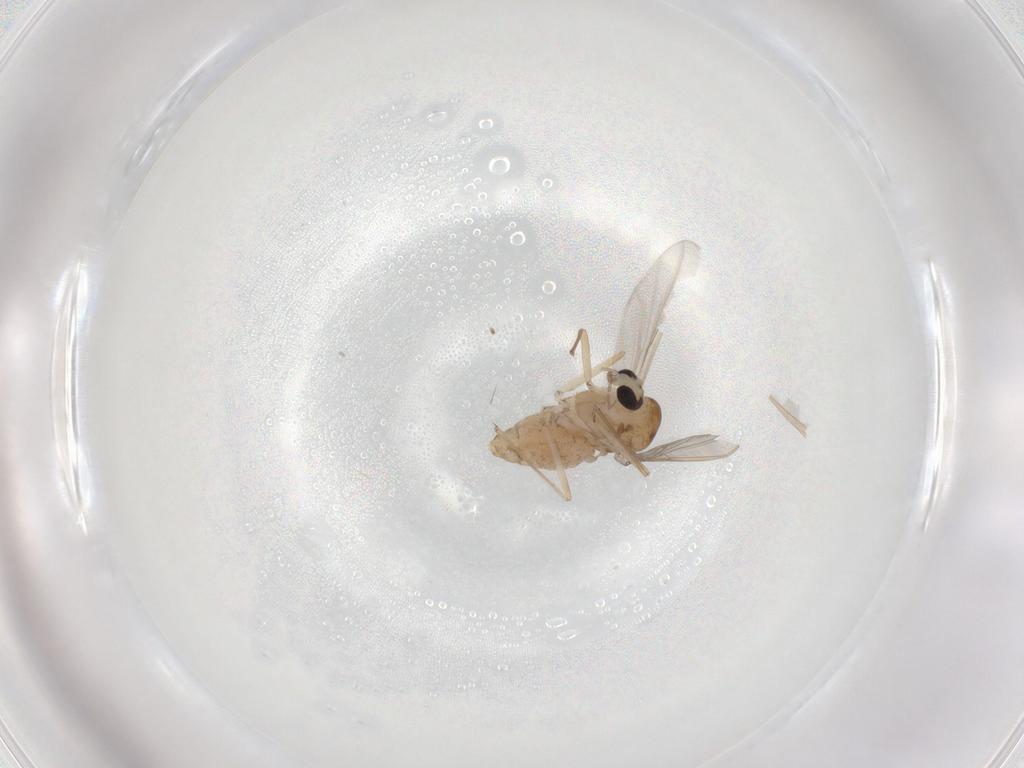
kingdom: Animalia
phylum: Arthropoda
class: Insecta
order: Diptera
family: Chironomidae
